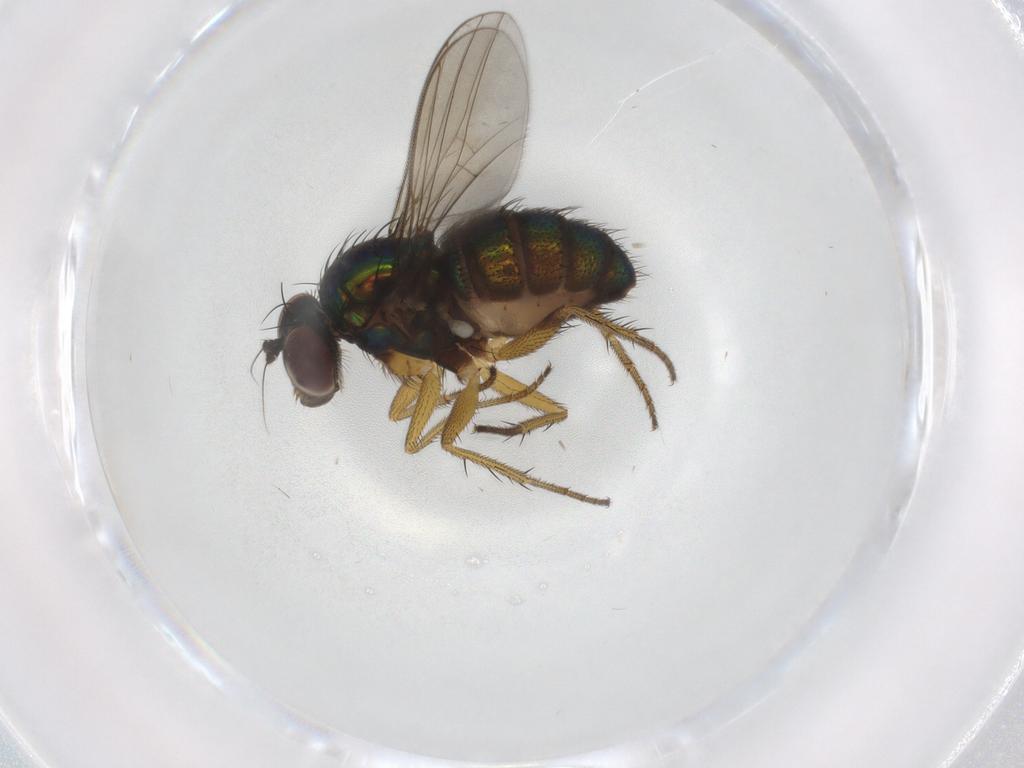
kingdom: Animalia
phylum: Arthropoda
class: Insecta
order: Diptera
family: Dolichopodidae
